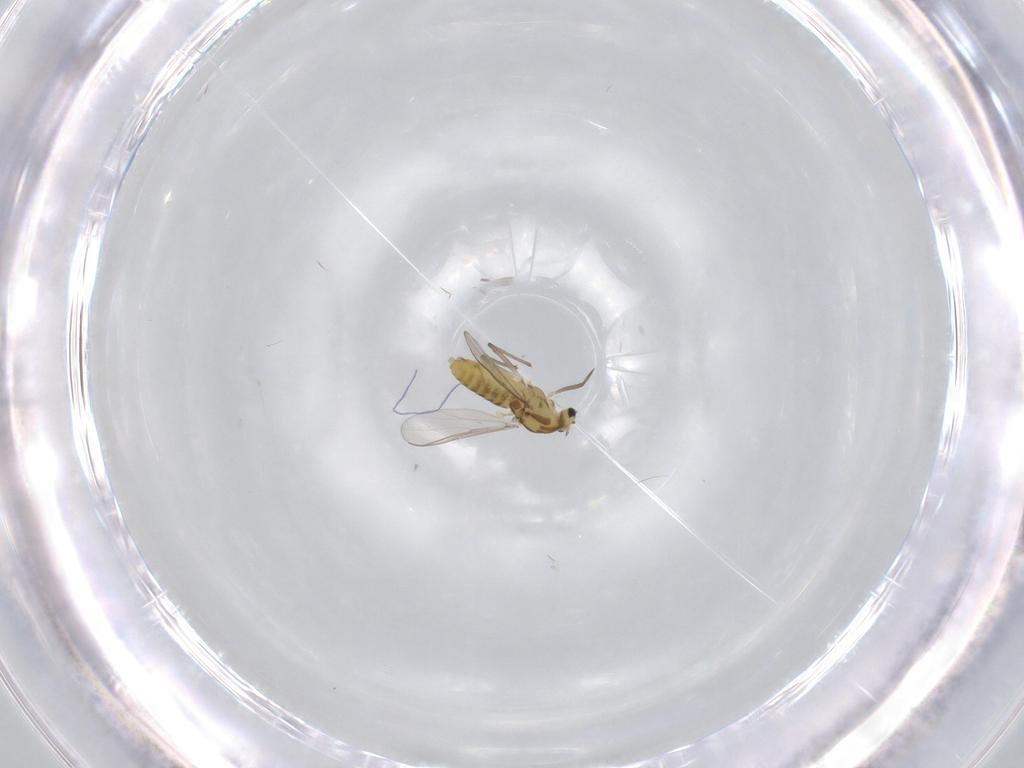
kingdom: Animalia
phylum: Arthropoda
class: Insecta
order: Diptera
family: Chironomidae
